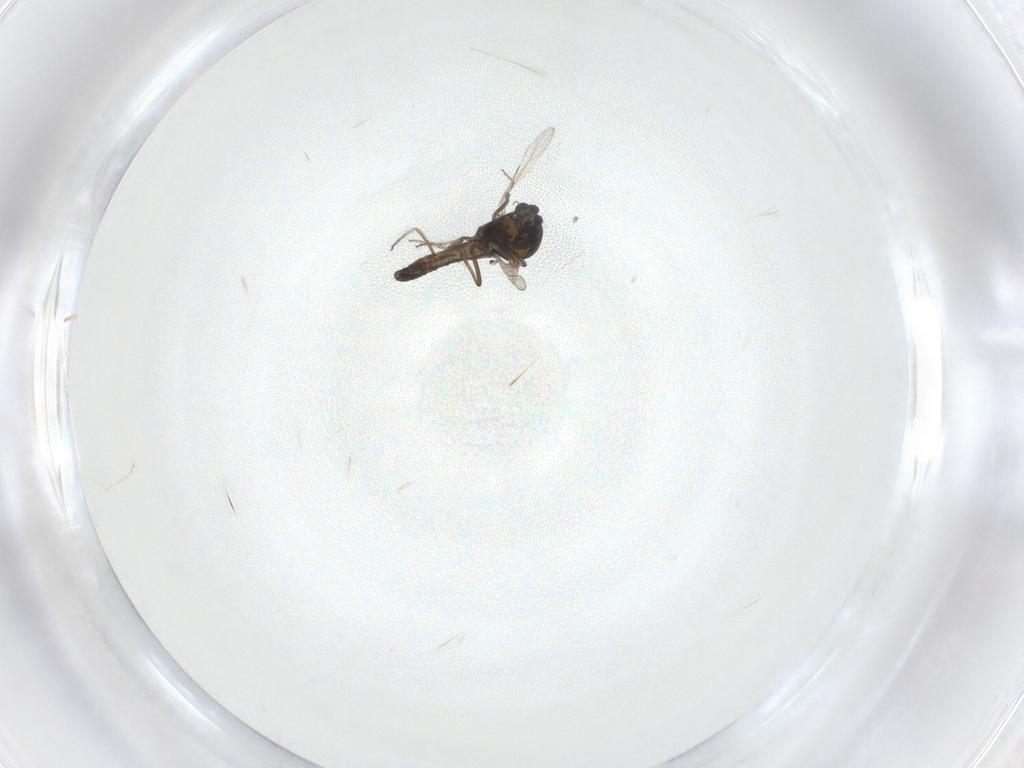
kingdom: Animalia
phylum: Arthropoda
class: Insecta
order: Diptera
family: Ceratopogonidae
